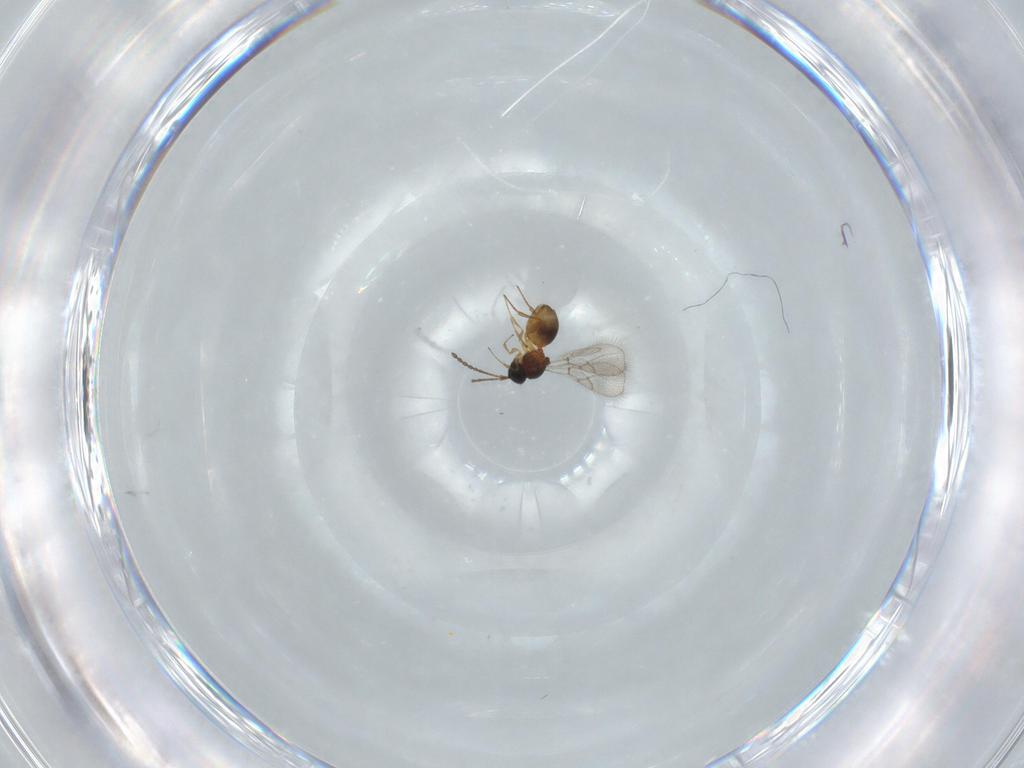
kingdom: Animalia
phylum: Arthropoda
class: Insecta
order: Hymenoptera
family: Figitidae
